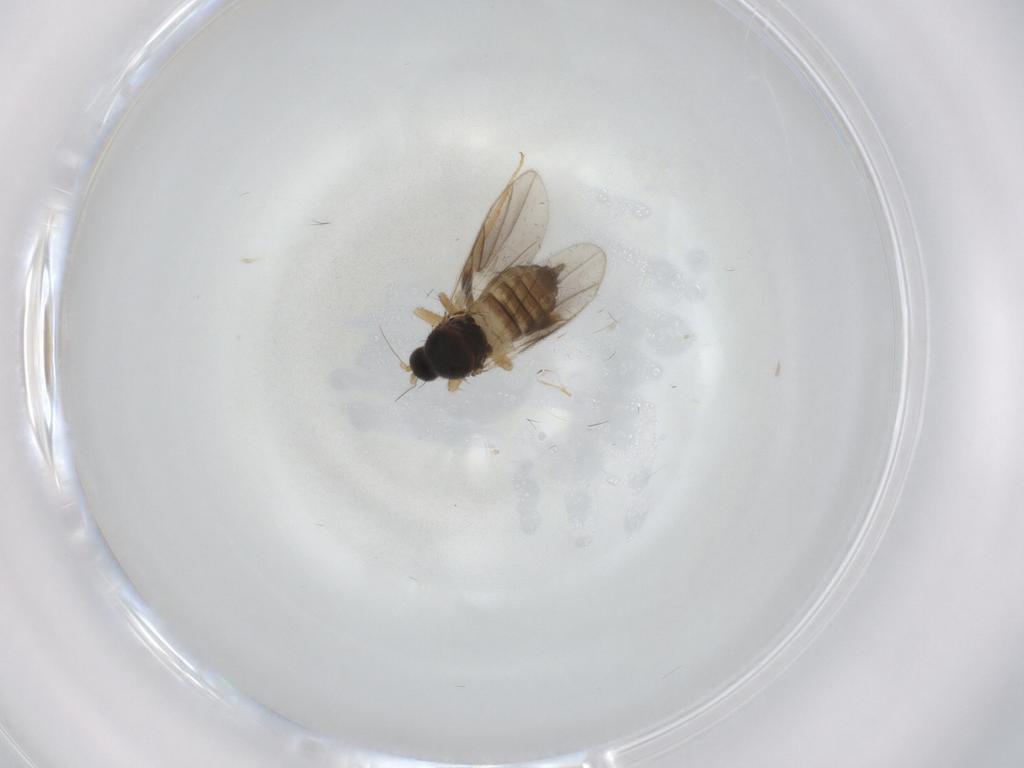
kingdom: Animalia
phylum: Arthropoda
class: Insecta
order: Diptera
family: Hybotidae
